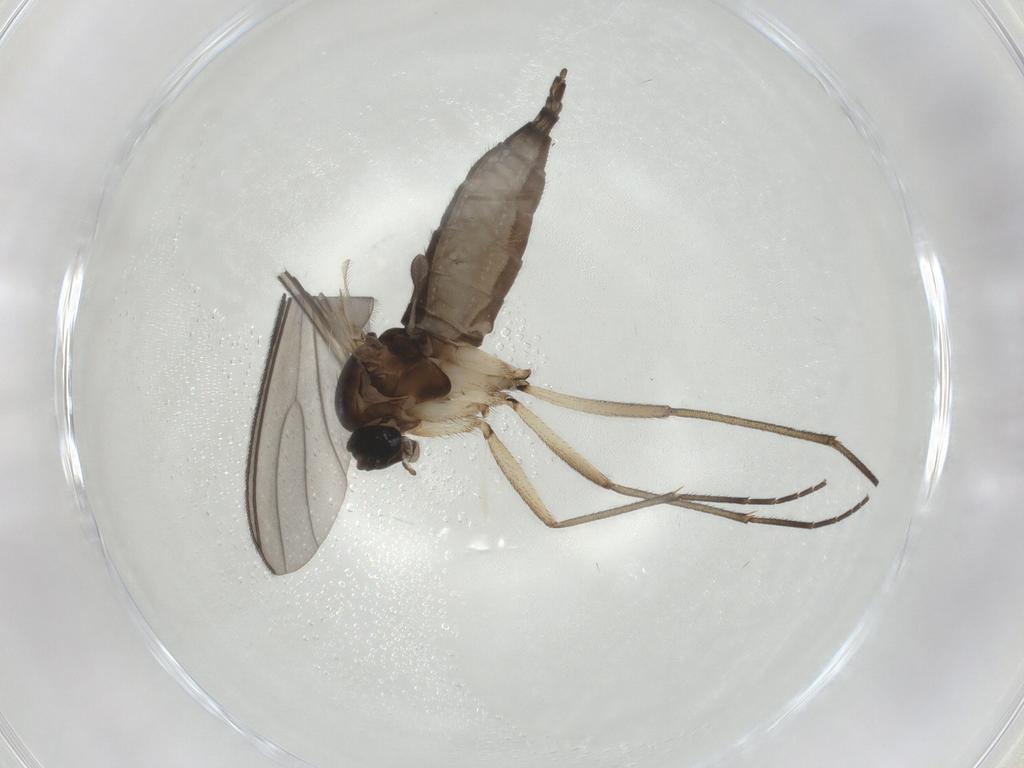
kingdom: Animalia
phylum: Arthropoda
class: Insecta
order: Diptera
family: Sciaridae
